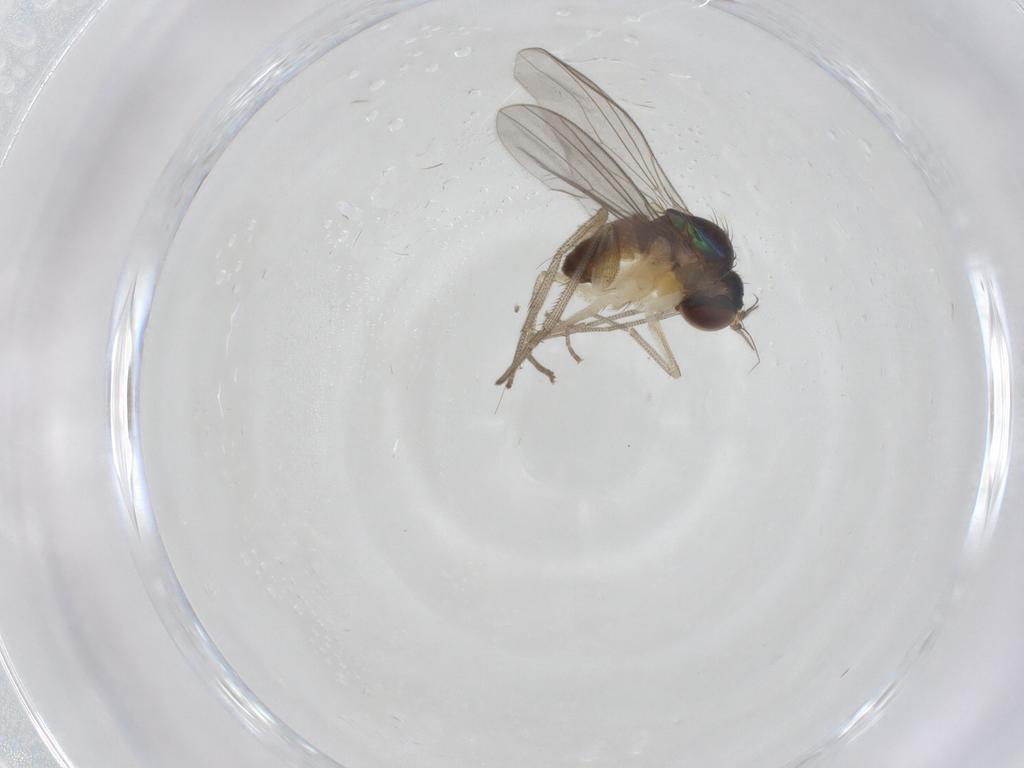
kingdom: Animalia
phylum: Arthropoda
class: Insecta
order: Diptera
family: Dolichopodidae
